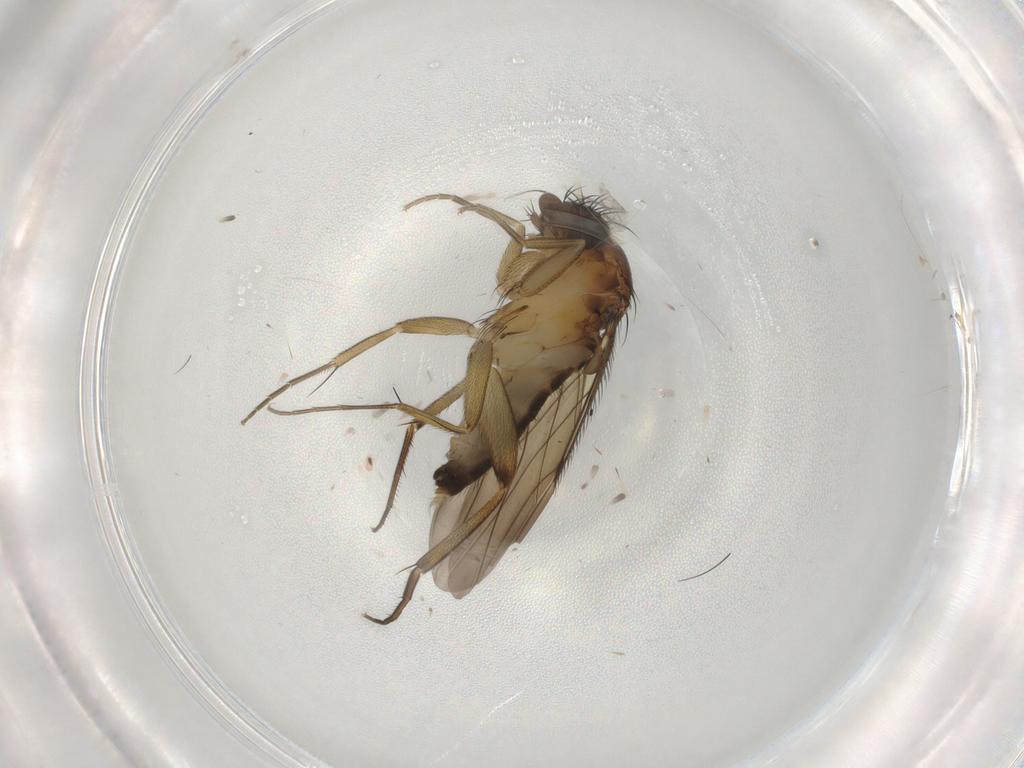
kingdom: Animalia
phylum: Arthropoda
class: Insecta
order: Diptera
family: Phoridae
